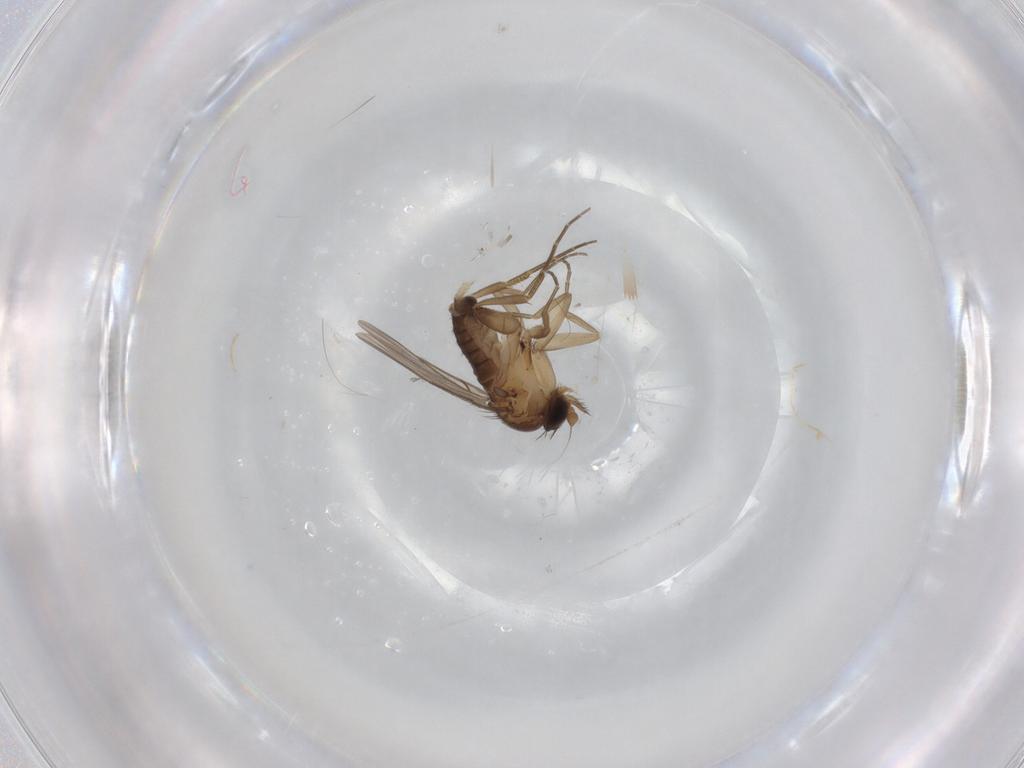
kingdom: Animalia
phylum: Arthropoda
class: Insecta
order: Diptera
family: Phoridae
